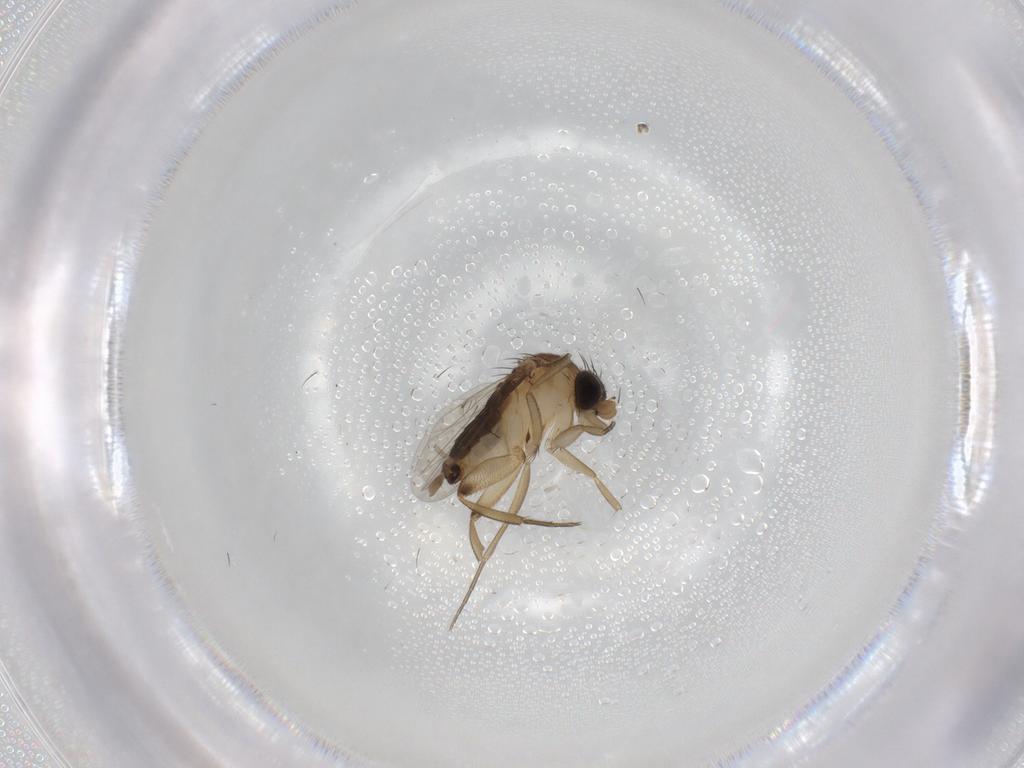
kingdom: Animalia
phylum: Arthropoda
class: Insecta
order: Diptera
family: Phoridae
